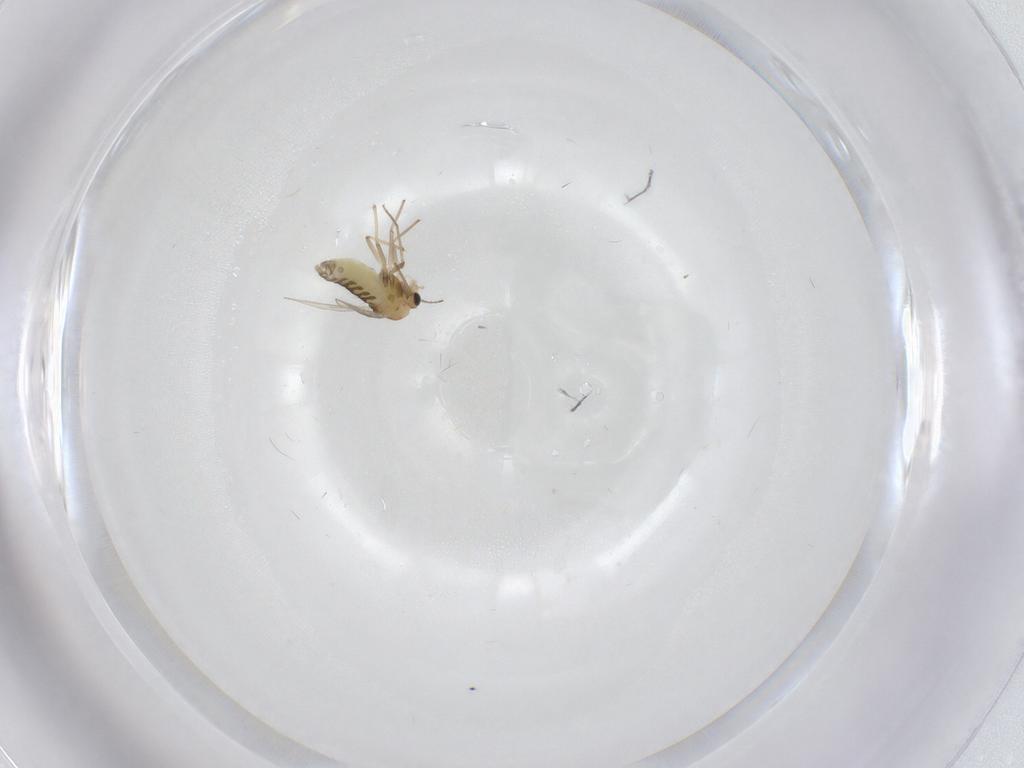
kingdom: Animalia
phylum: Arthropoda
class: Insecta
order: Diptera
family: Chironomidae
